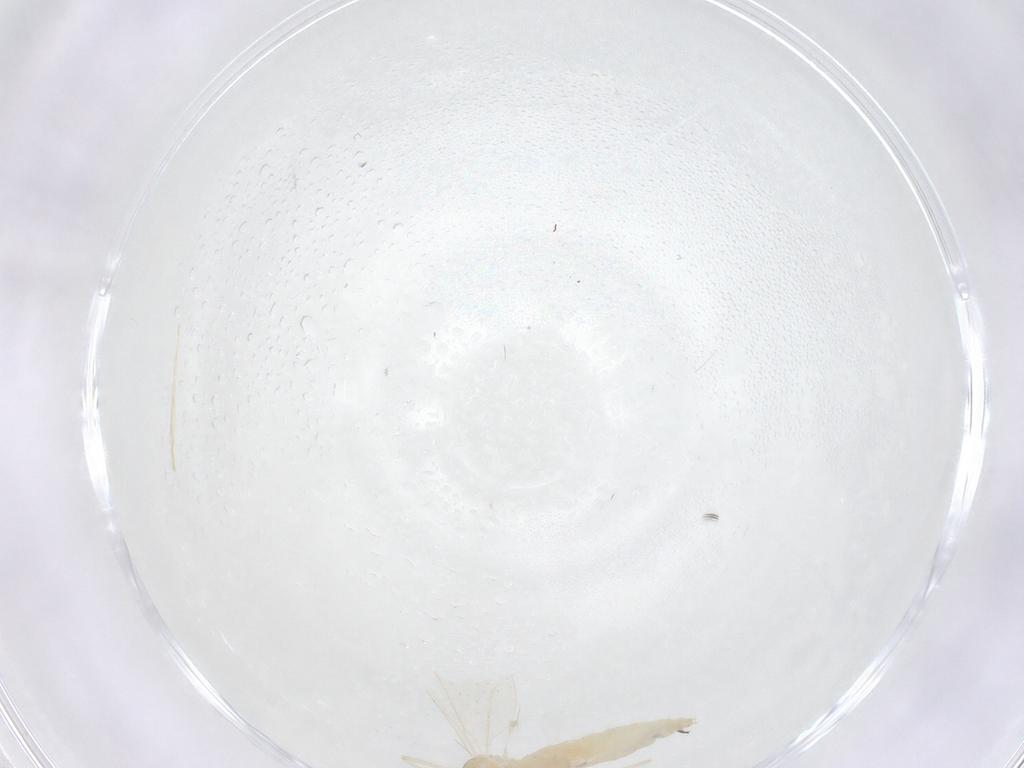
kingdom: Animalia
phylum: Arthropoda
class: Insecta
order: Diptera
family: Cecidomyiidae
